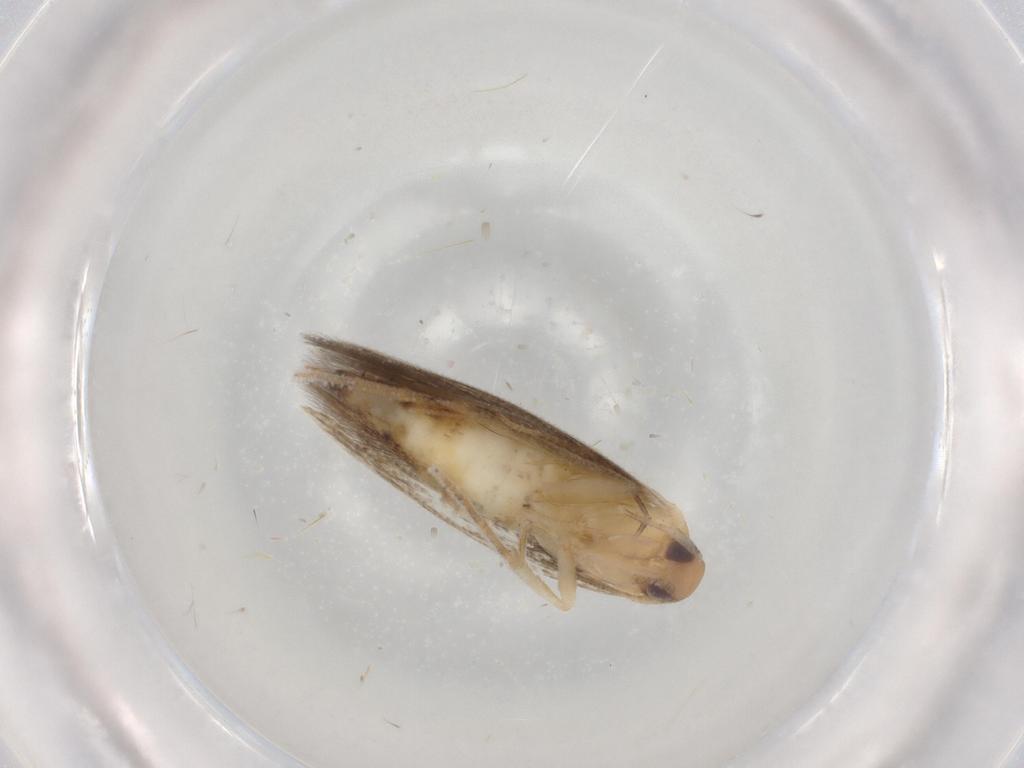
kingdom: Animalia
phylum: Arthropoda
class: Insecta
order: Lepidoptera
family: Cosmopterigidae
